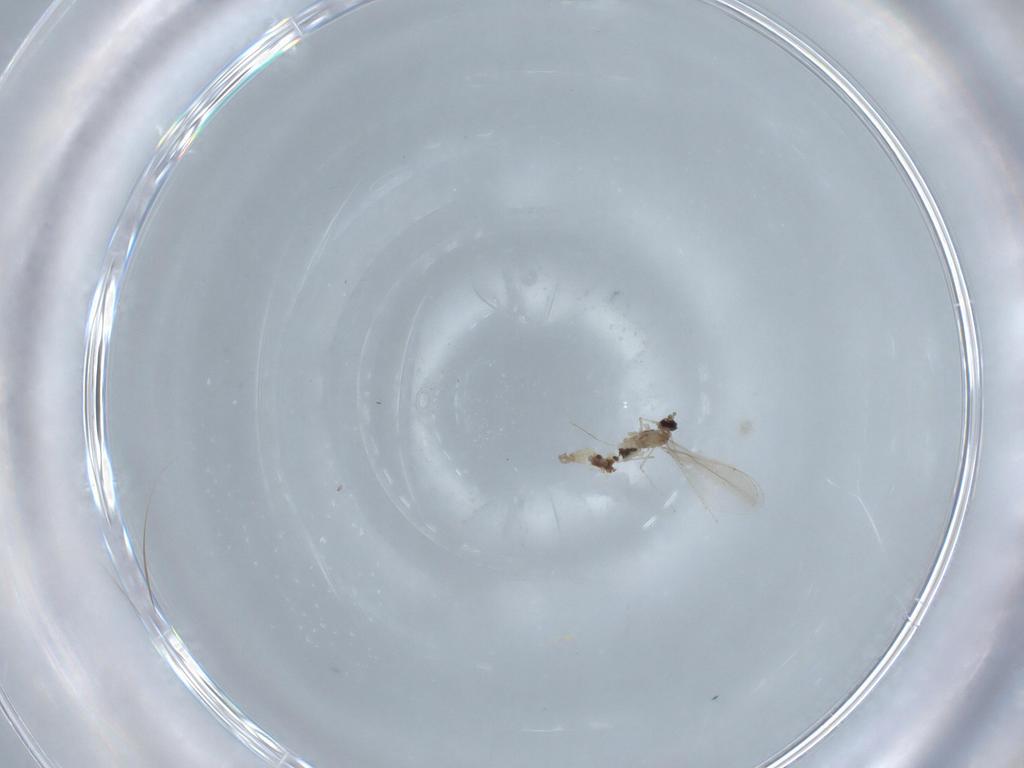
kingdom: Animalia
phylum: Arthropoda
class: Insecta
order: Diptera
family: Cecidomyiidae
